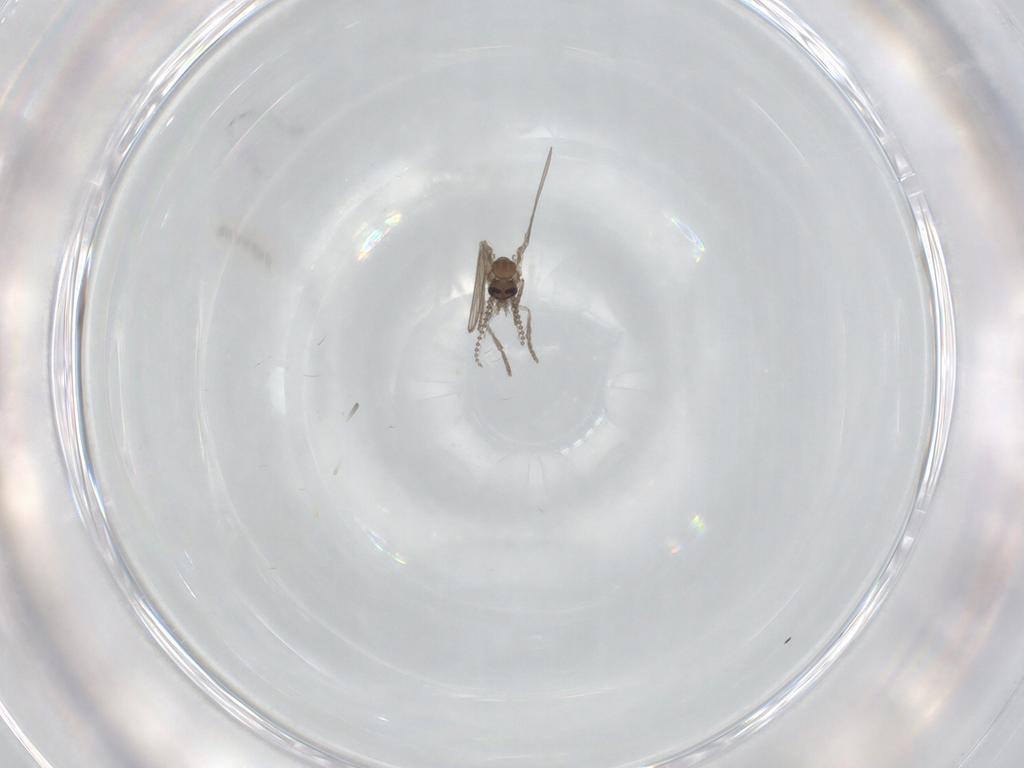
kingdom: Animalia
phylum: Arthropoda
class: Insecta
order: Diptera
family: Psychodidae
